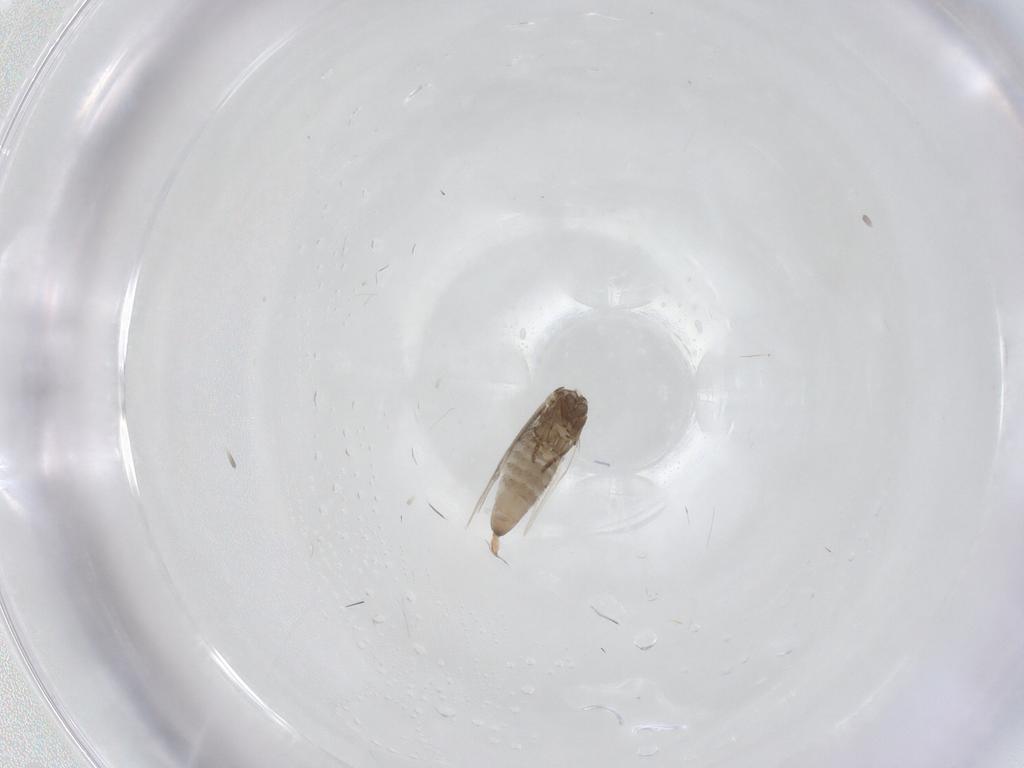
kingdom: Animalia
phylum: Arthropoda
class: Insecta
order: Lepidoptera
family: Heliozelidae
